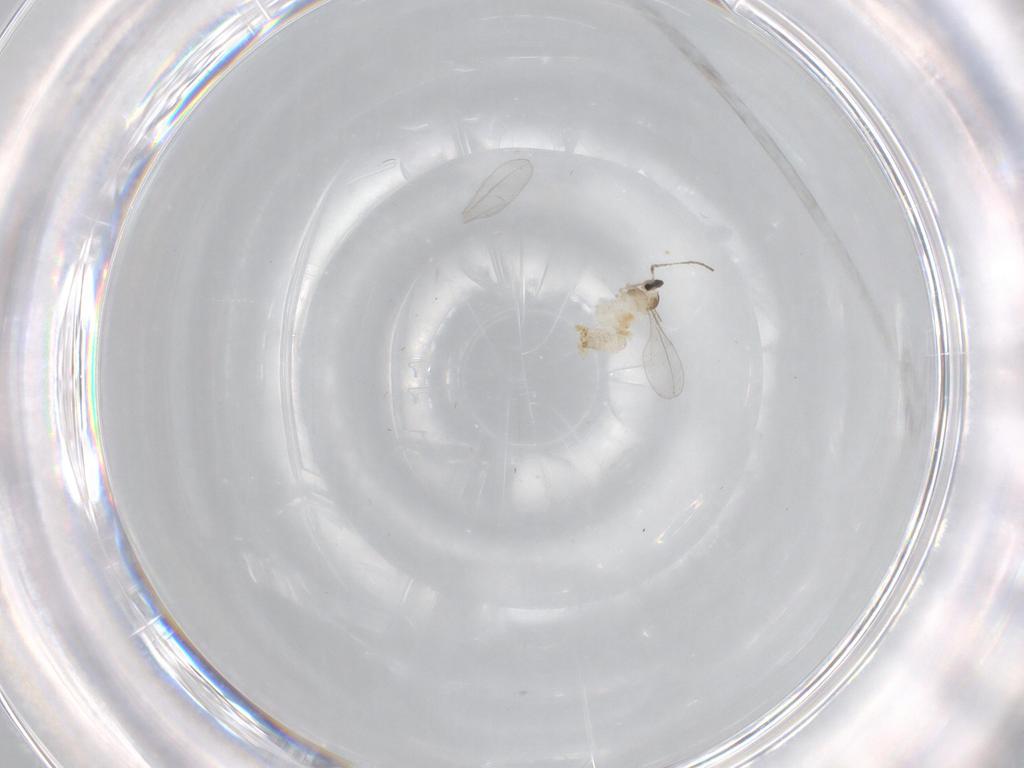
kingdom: Animalia
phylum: Arthropoda
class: Insecta
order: Diptera
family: Cecidomyiidae
